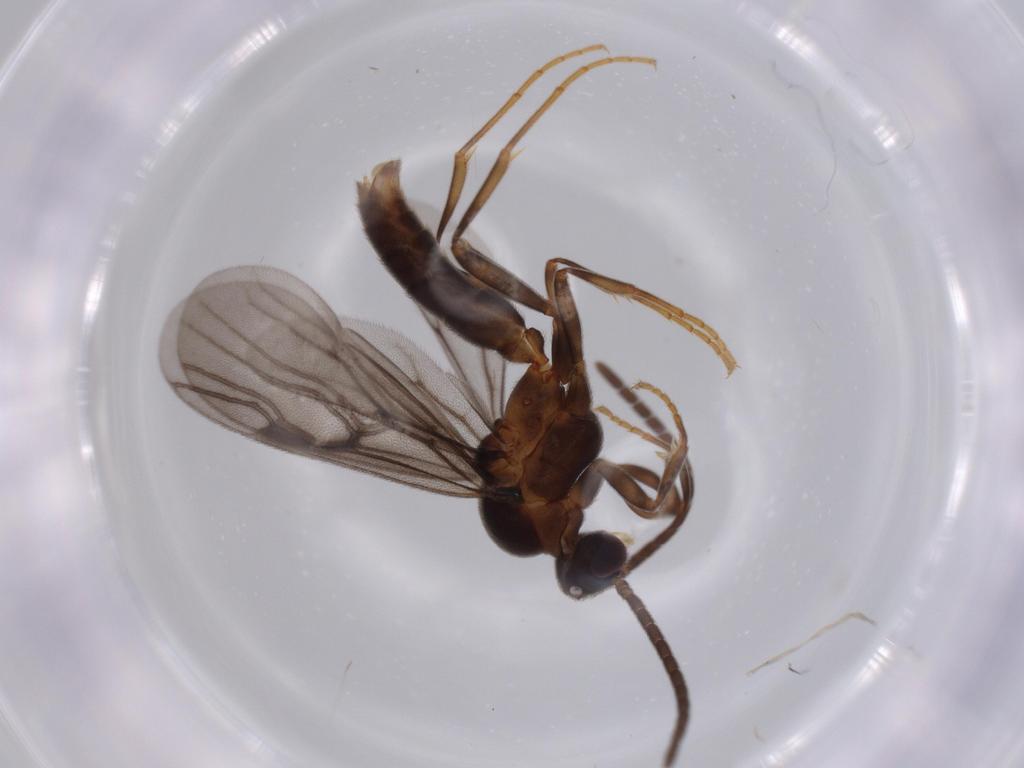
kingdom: Animalia
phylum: Arthropoda
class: Insecta
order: Hymenoptera
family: Formicidae
